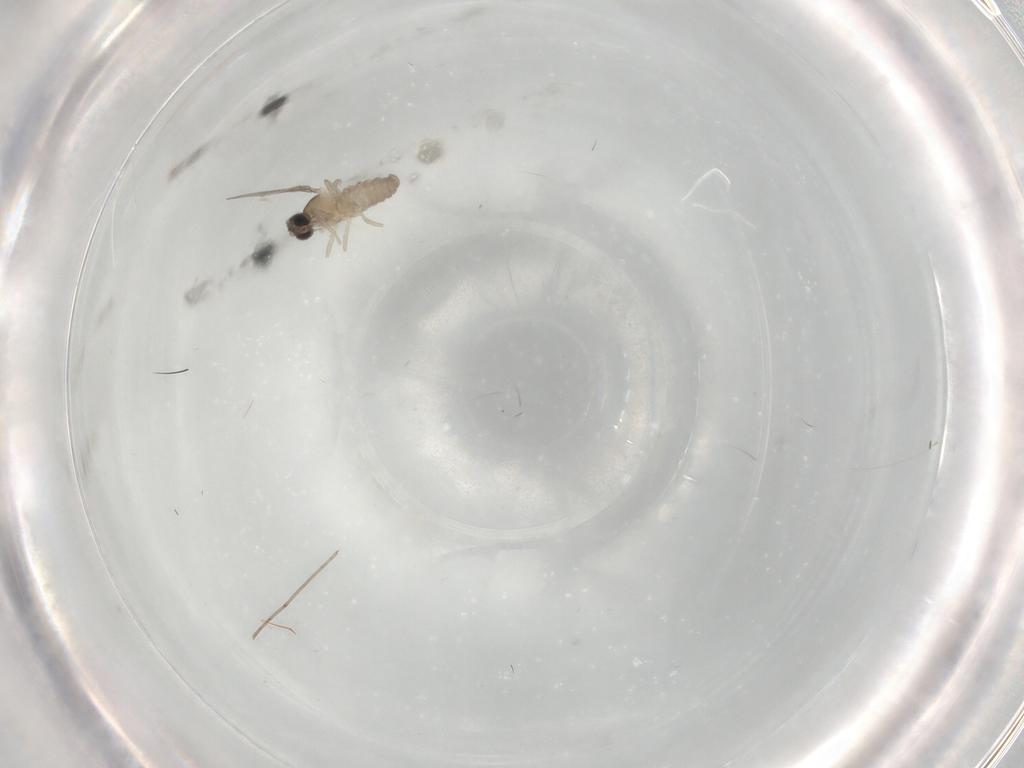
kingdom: Animalia
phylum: Arthropoda
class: Insecta
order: Diptera
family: Cecidomyiidae
